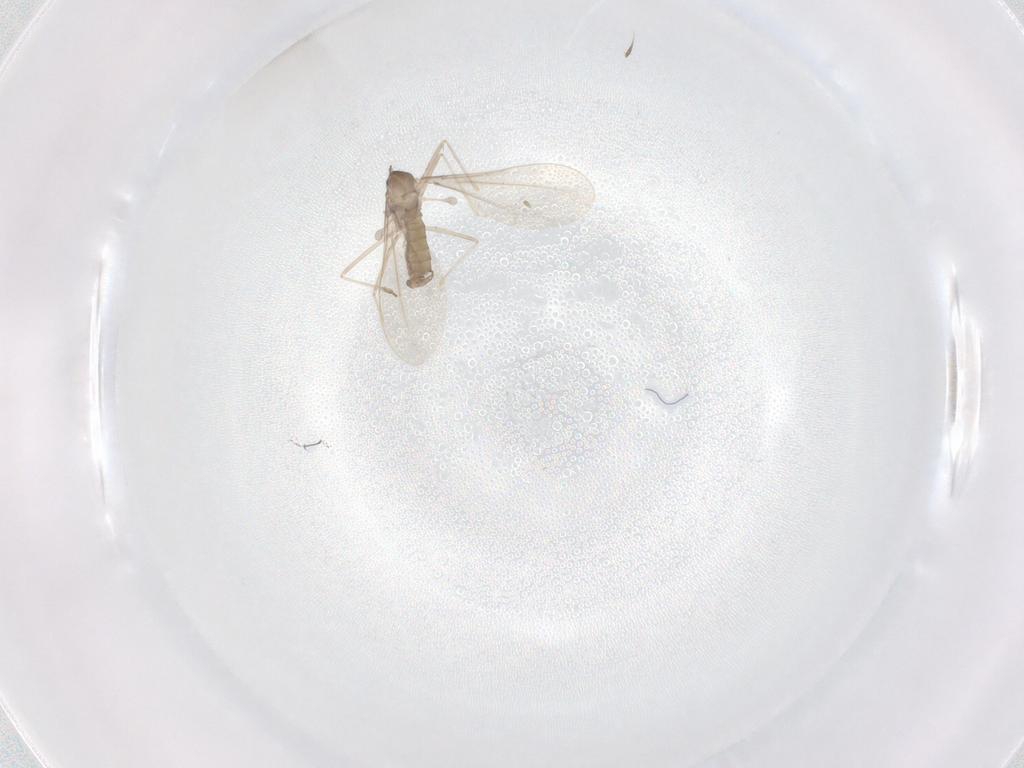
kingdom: Animalia
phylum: Arthropoda
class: Insecta
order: Diptera
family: Cecidomyiidae
